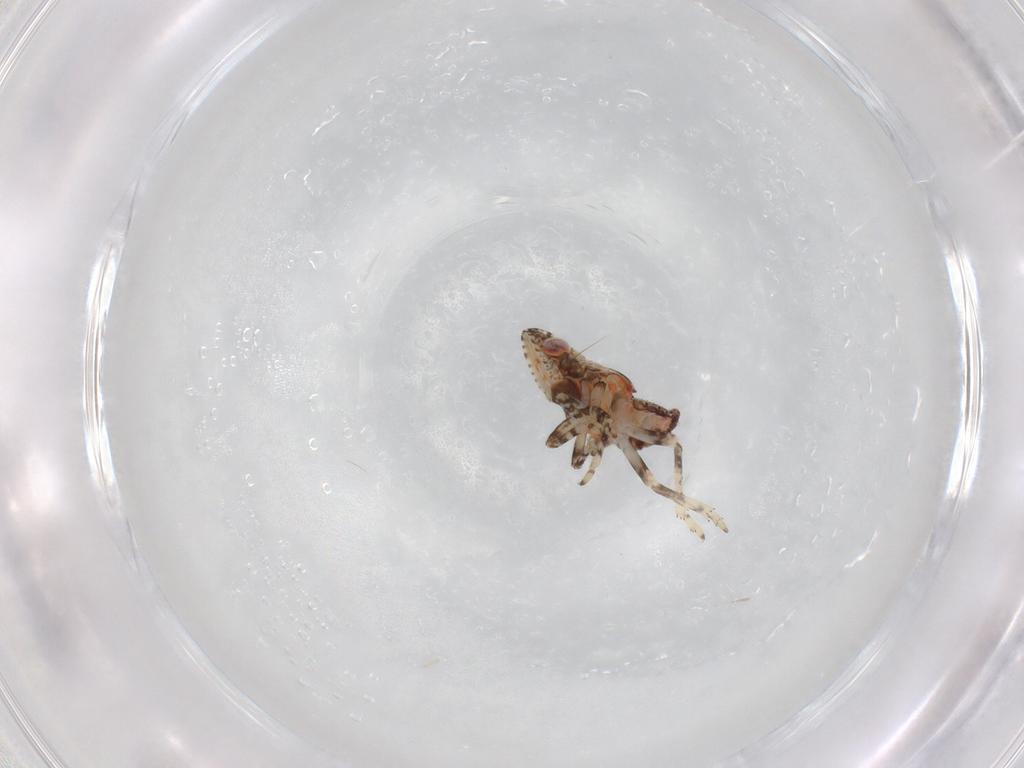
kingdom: Animalia
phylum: Arthropoda
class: Insecta
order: Hemiptera
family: Tropiduchidae
